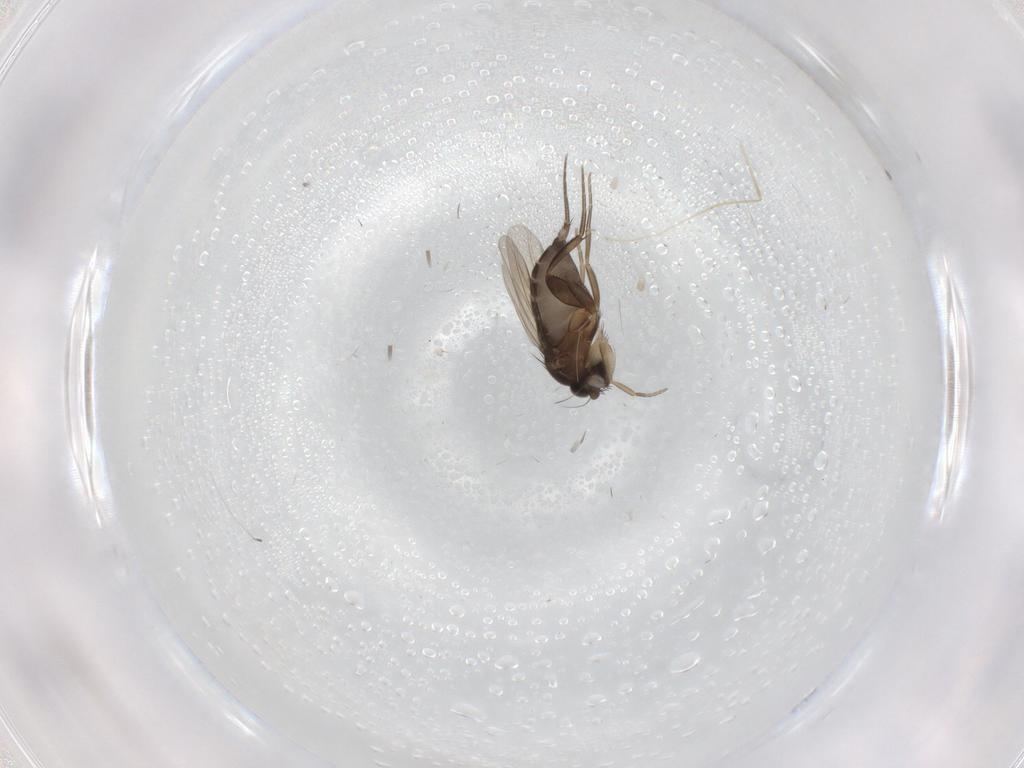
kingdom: Animalia
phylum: Arthropoda
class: Insecta
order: Diptera
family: Phoridae
